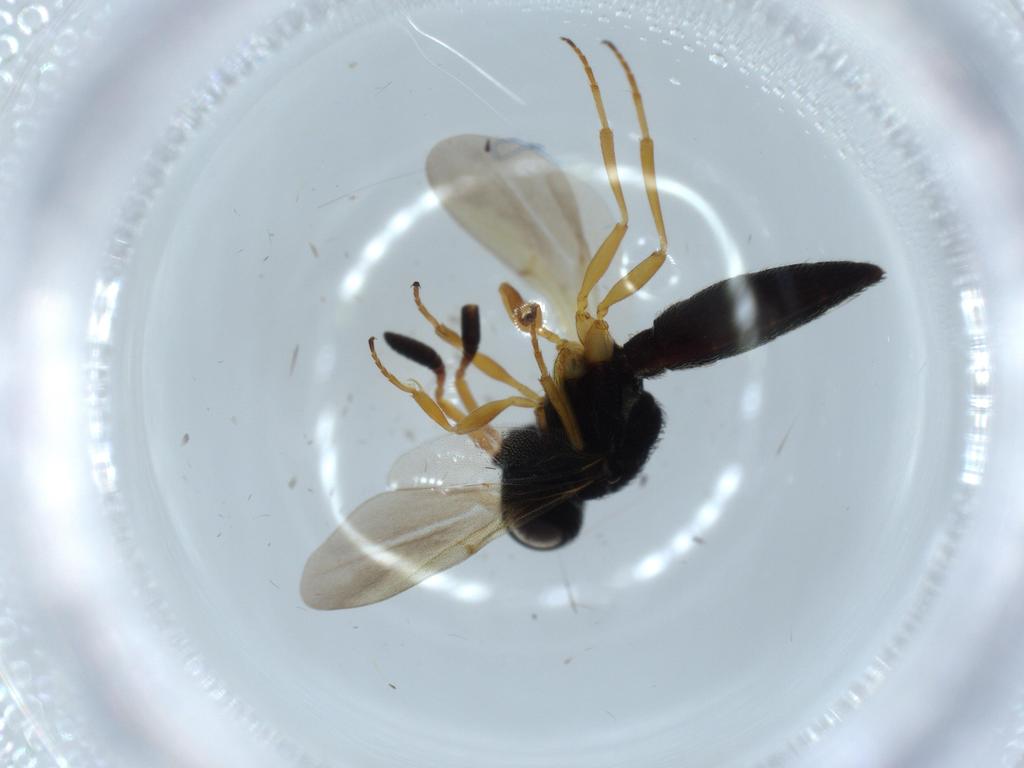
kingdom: Animalia
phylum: Arthropoda
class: Insecta
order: Hymenoptera
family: Scelionidae
